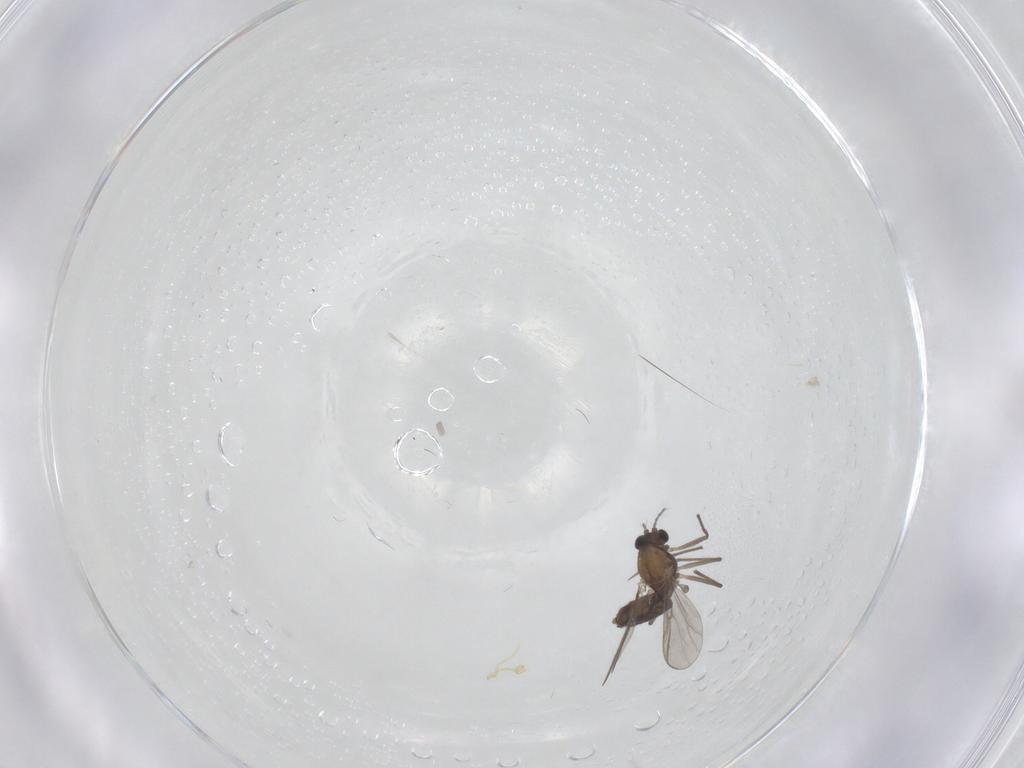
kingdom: Animalia
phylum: Arthropoda
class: Insecta
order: Diptera
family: Chironomidae
